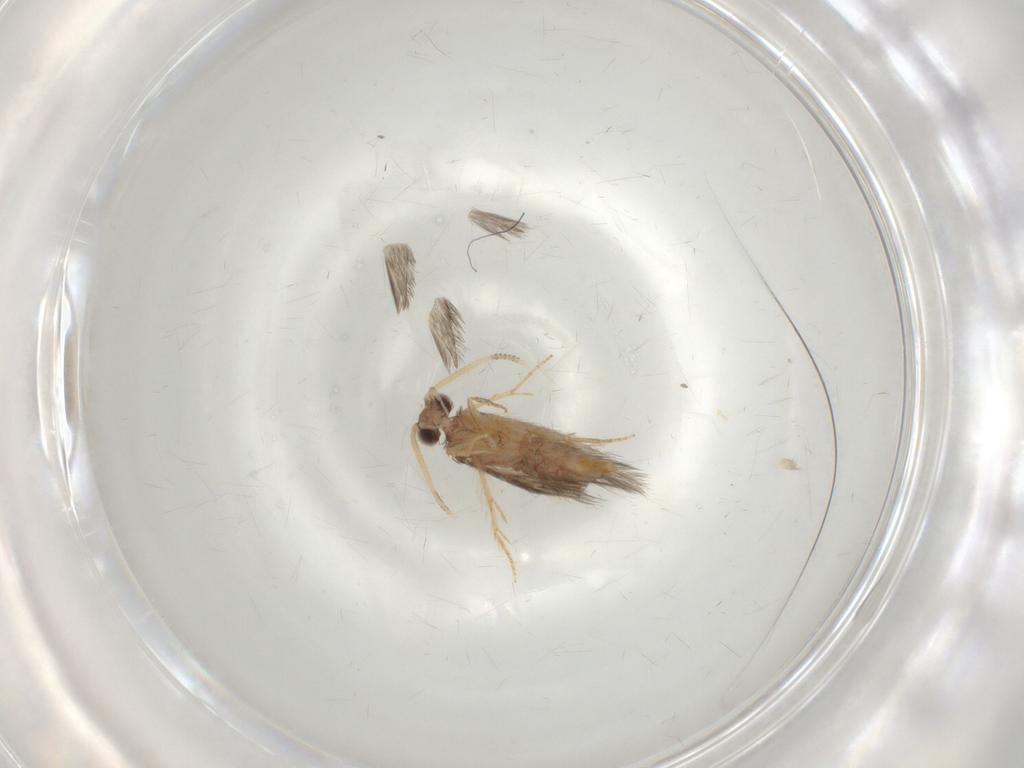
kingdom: Animalia
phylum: Arthropoda
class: Insecta
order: Trichoptera
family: Hydroptilidae
